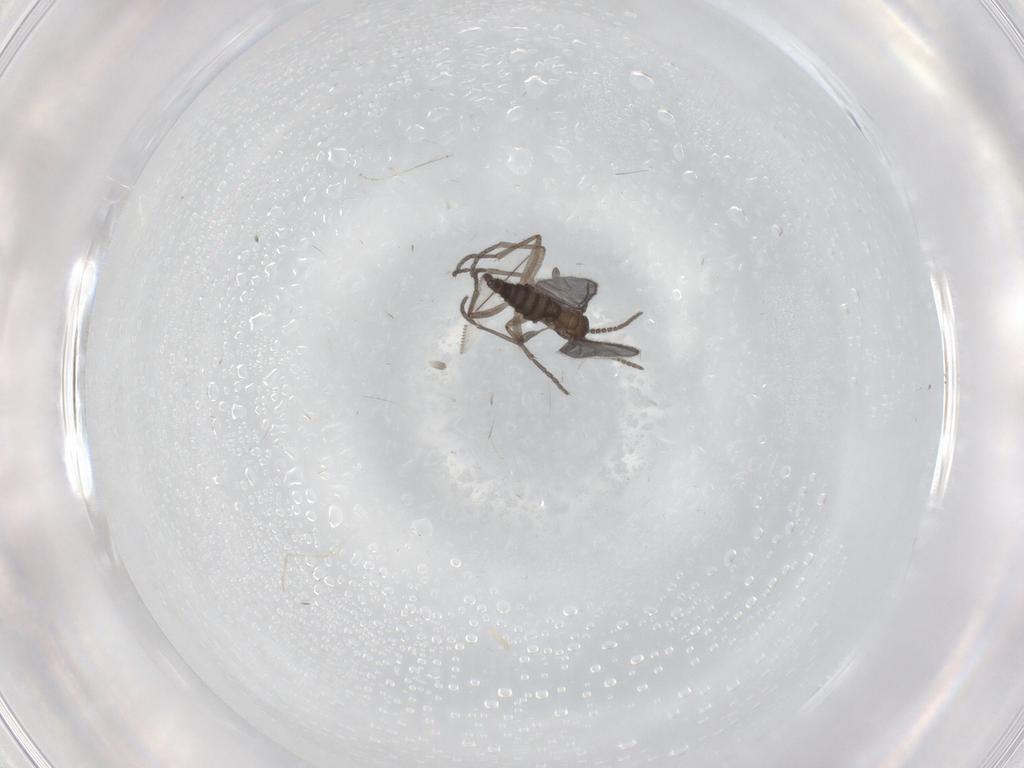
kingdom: Animalia
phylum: Arthropoda
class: Insecta
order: Diptera
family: Sciaridae
